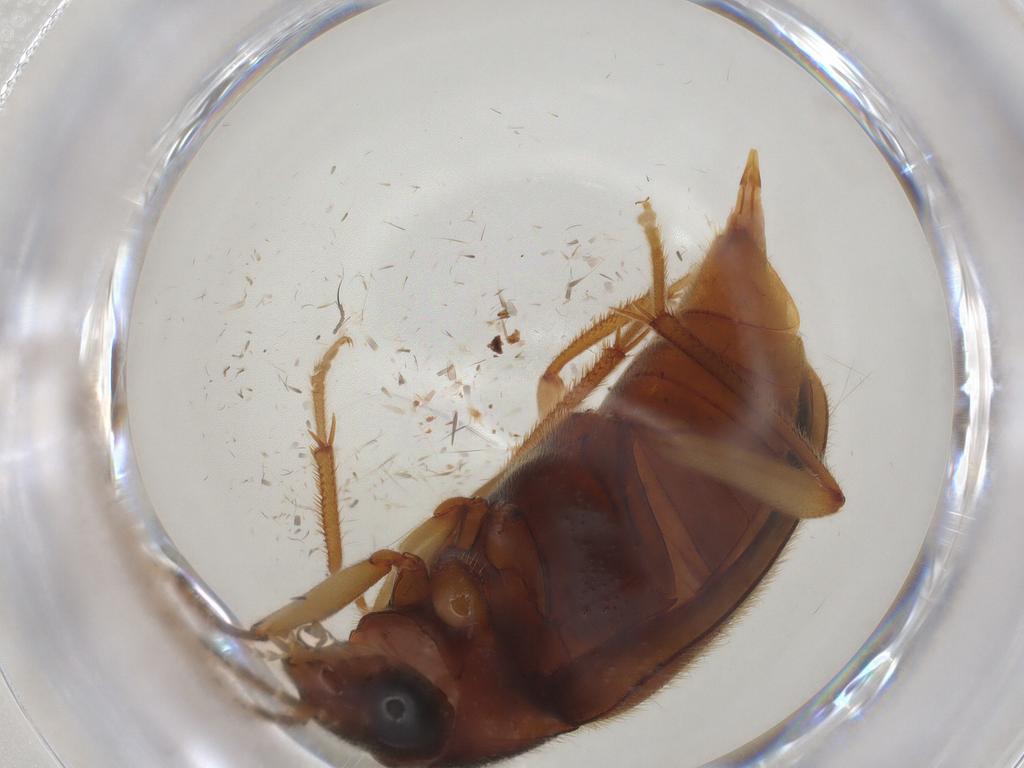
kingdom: Animalia
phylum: Arthropoda
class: Insecta
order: Coleoptera
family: Ptilodactylidae
